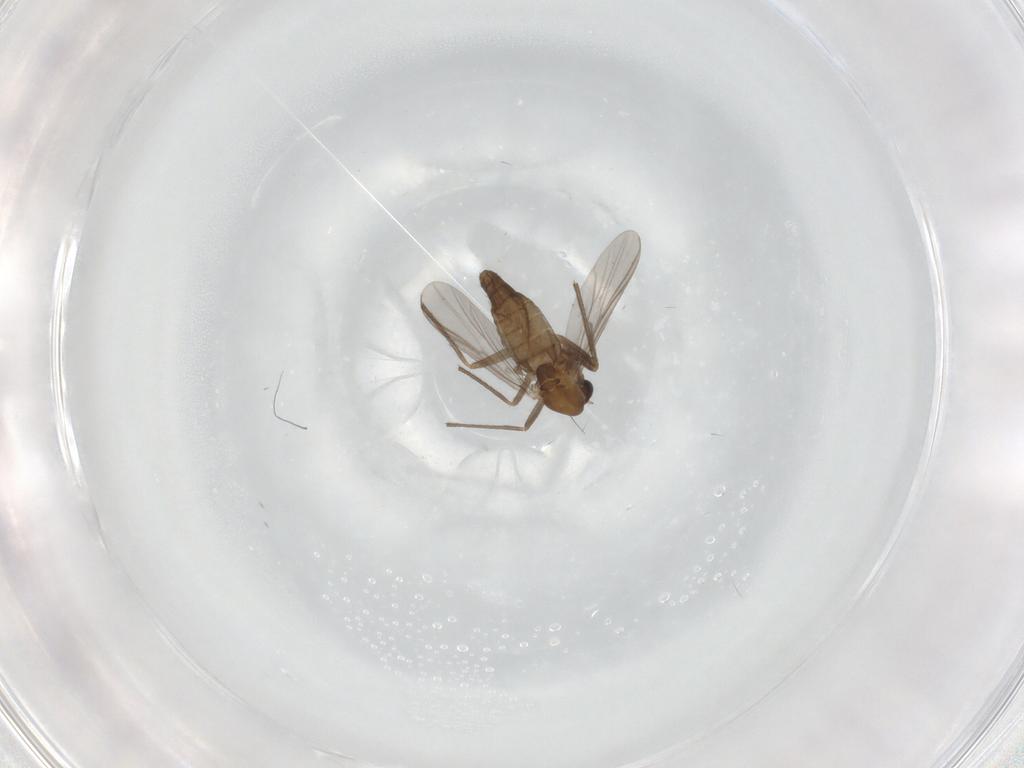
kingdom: Animalia
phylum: Arthropoda
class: Insecta
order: Diptera
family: Chironomidae
